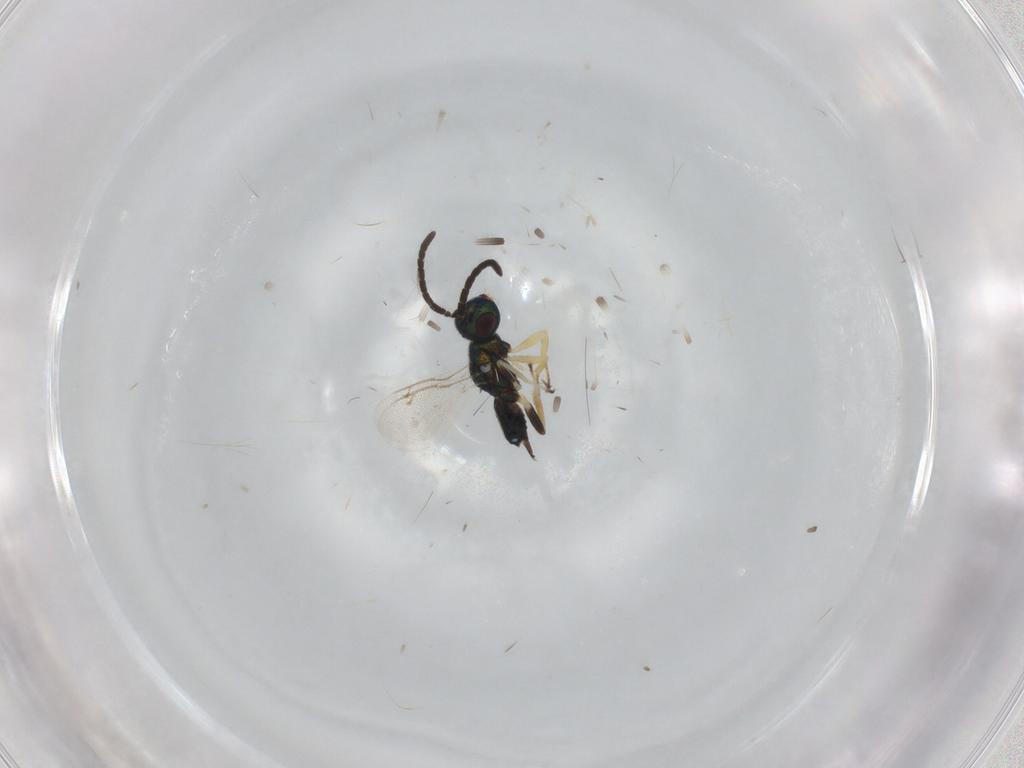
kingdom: Animalia
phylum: Arthropoda
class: Insecta
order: Hymenoptera
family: Eupelmidae
